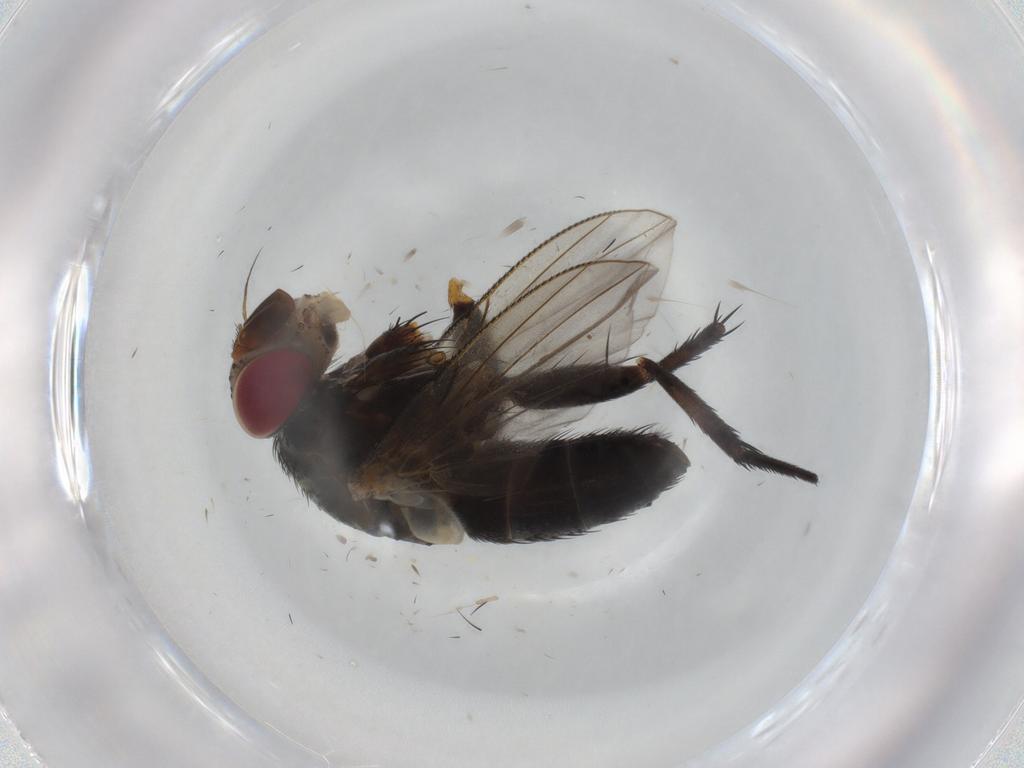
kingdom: Animalia
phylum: Arthropoda
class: Insecta
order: Diptera
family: Tachinidae
